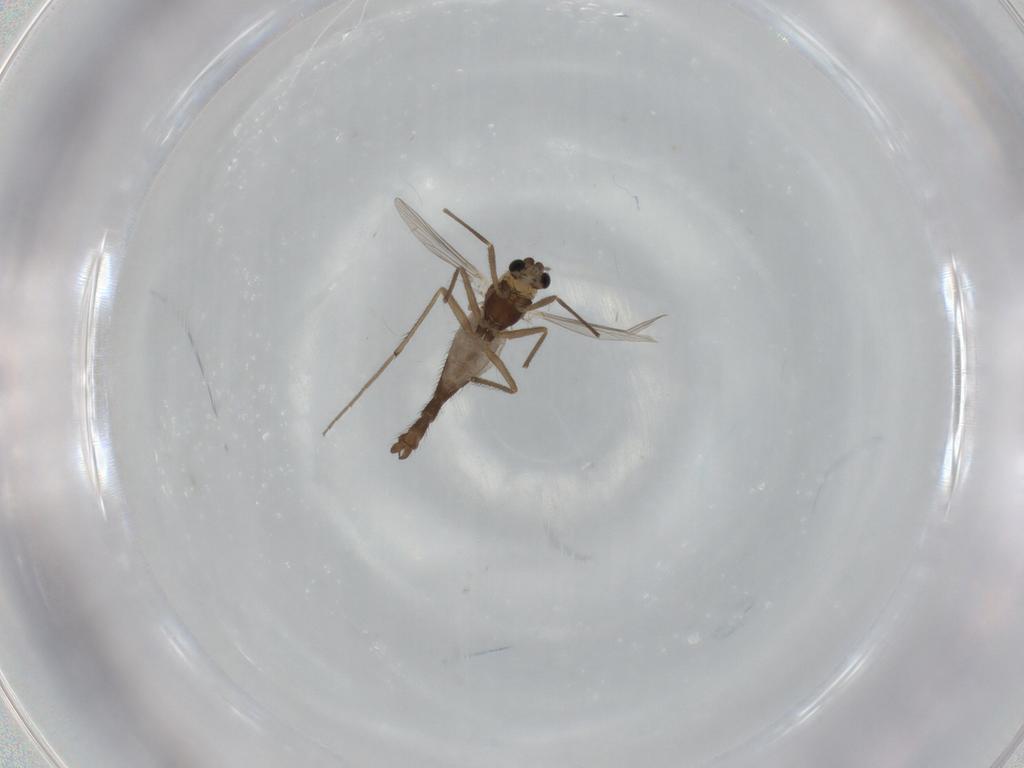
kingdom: Animalia
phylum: Arthropoda
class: Insecta
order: Diptera
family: Chironomidae
